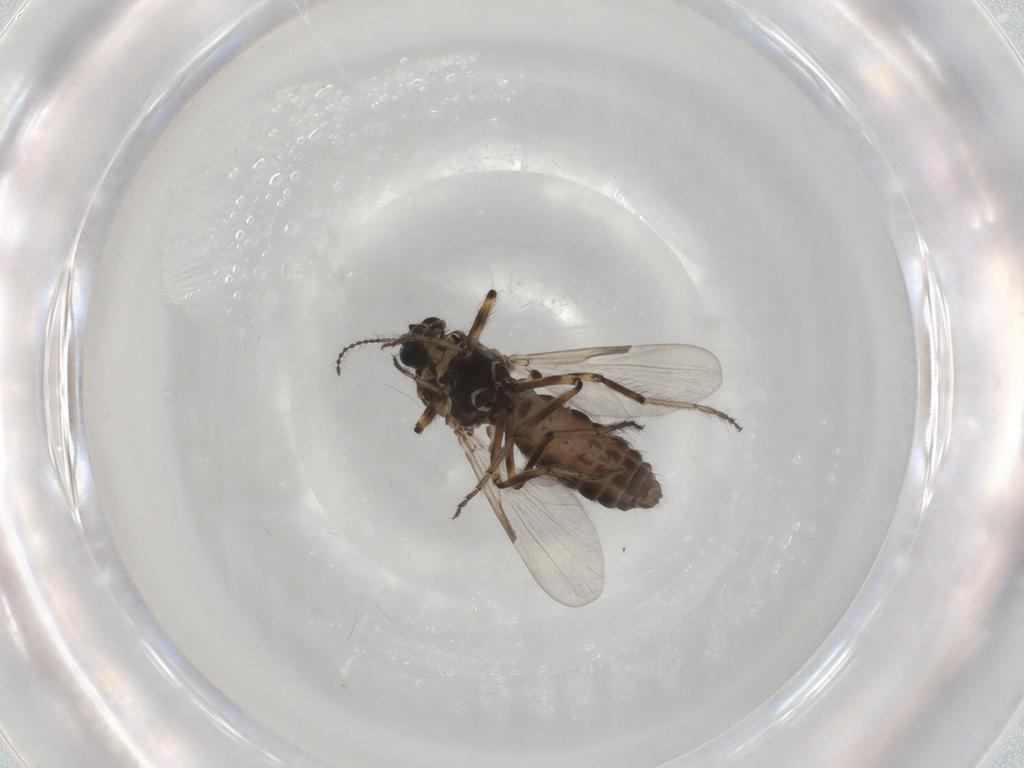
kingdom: Animalia
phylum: Arthropoda
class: Insecta
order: Diptera
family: Ceratopogonidae
